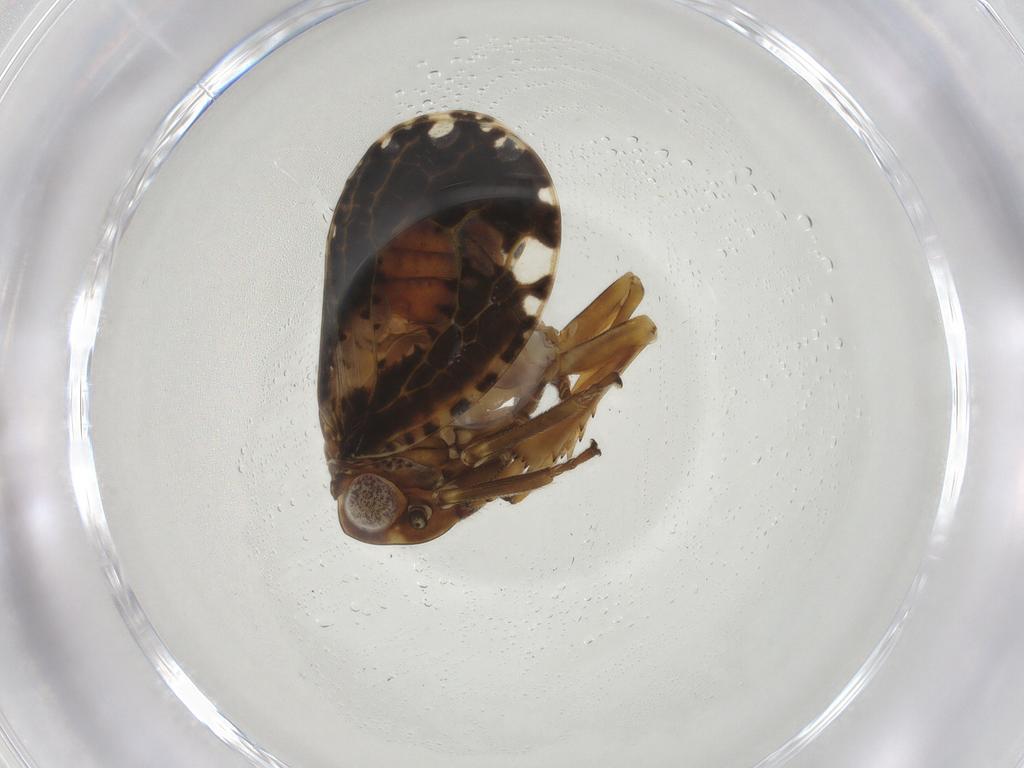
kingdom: Animalia
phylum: Arthropoda
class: Insecta
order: Hemiptera
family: Tropiduchidae
